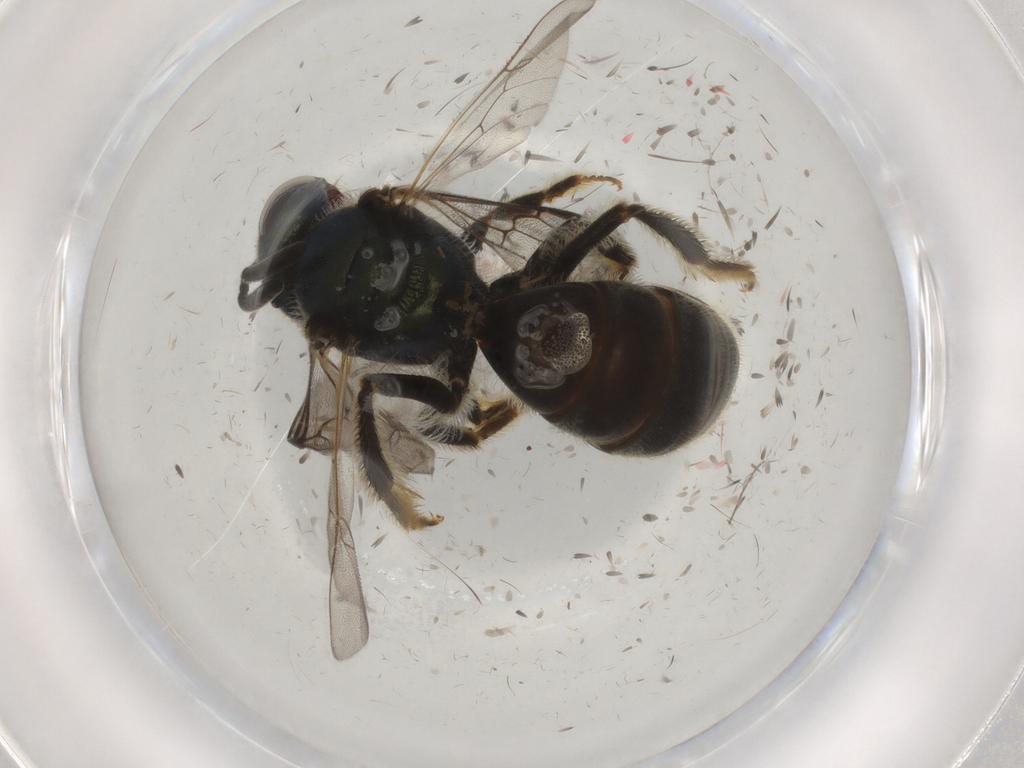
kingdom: Animalia
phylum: Arthropoda
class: Insecta
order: Hymenoptera
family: Halictidae
